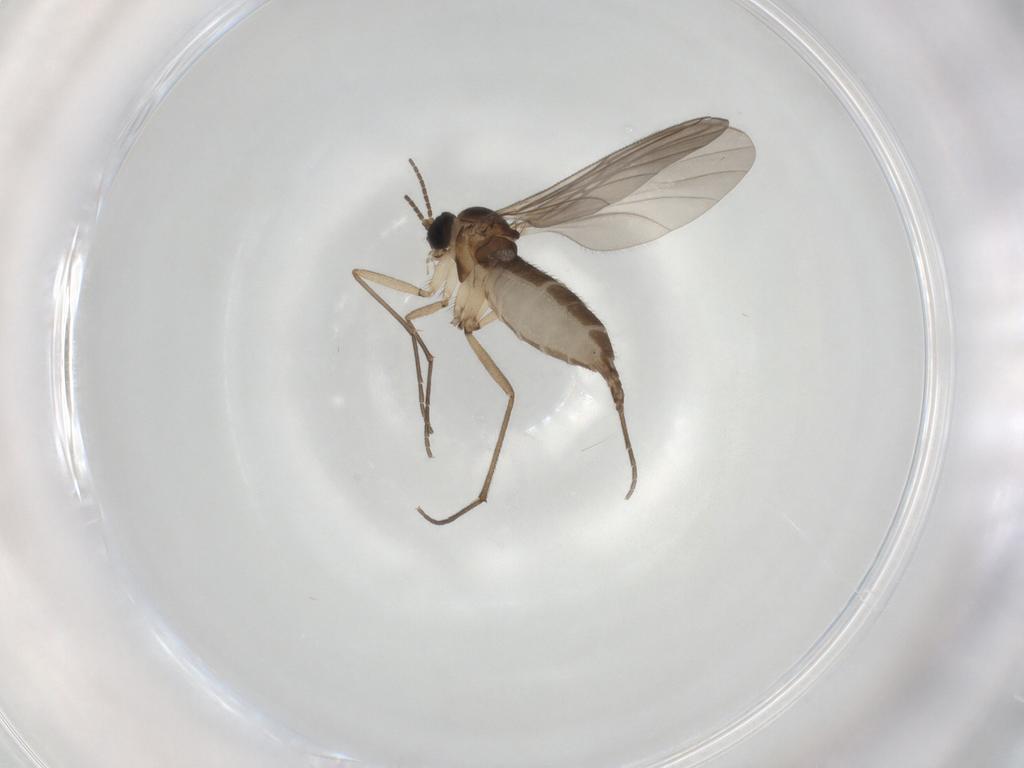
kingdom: Animalia
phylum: Arthropoda
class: Insecta
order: Diptera
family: Sciaridae
